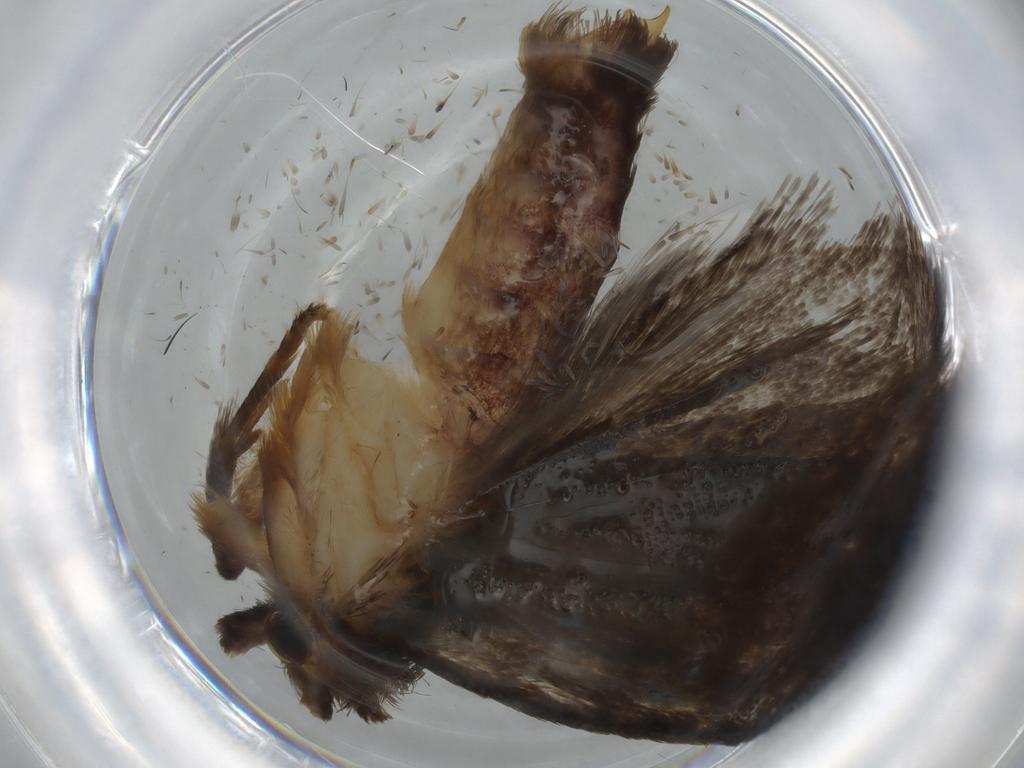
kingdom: Animalia
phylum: Arthropoda
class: Insecta
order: Lepidoptera
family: Tineidae
